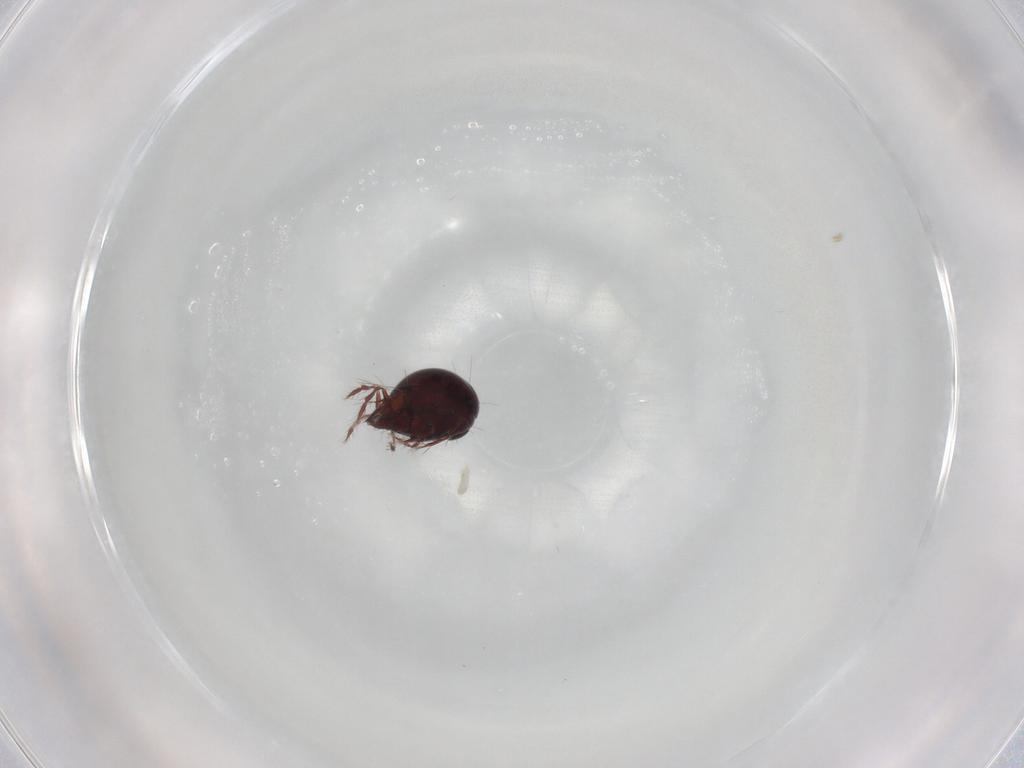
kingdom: Animalia
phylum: Arthropoda
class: Arachnida
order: Sarcoptiformes
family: Ceratoppiidae
